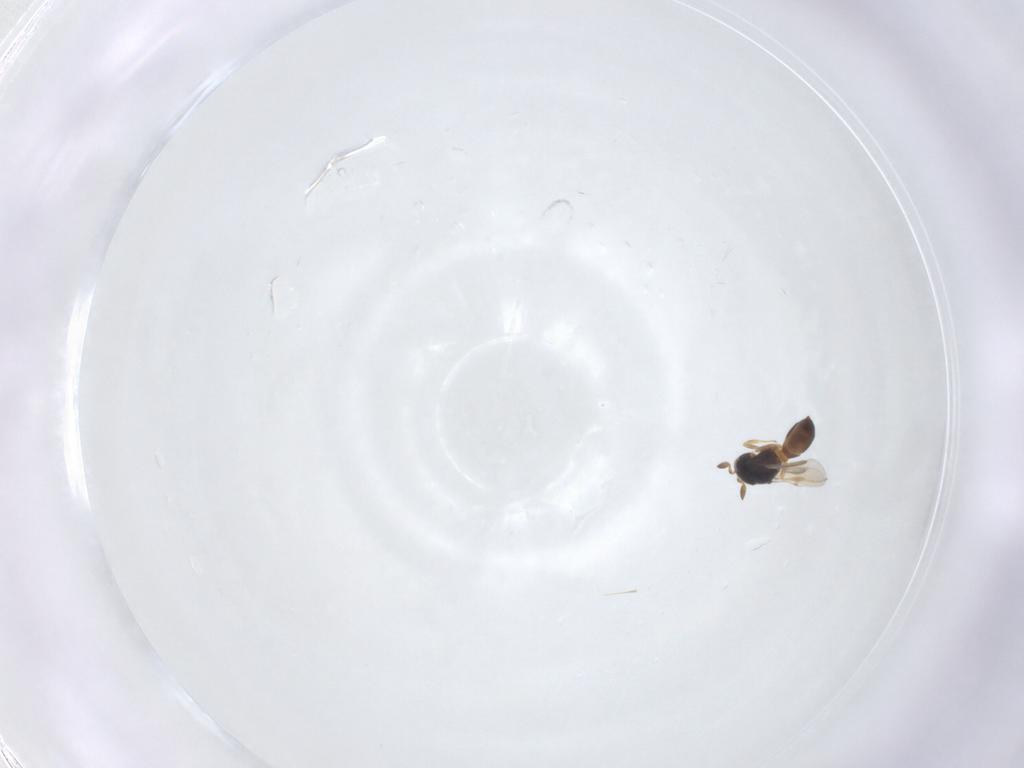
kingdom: Animalia
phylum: Arthropoda
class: Insecta
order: Hymenoptera
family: Scelionidae
